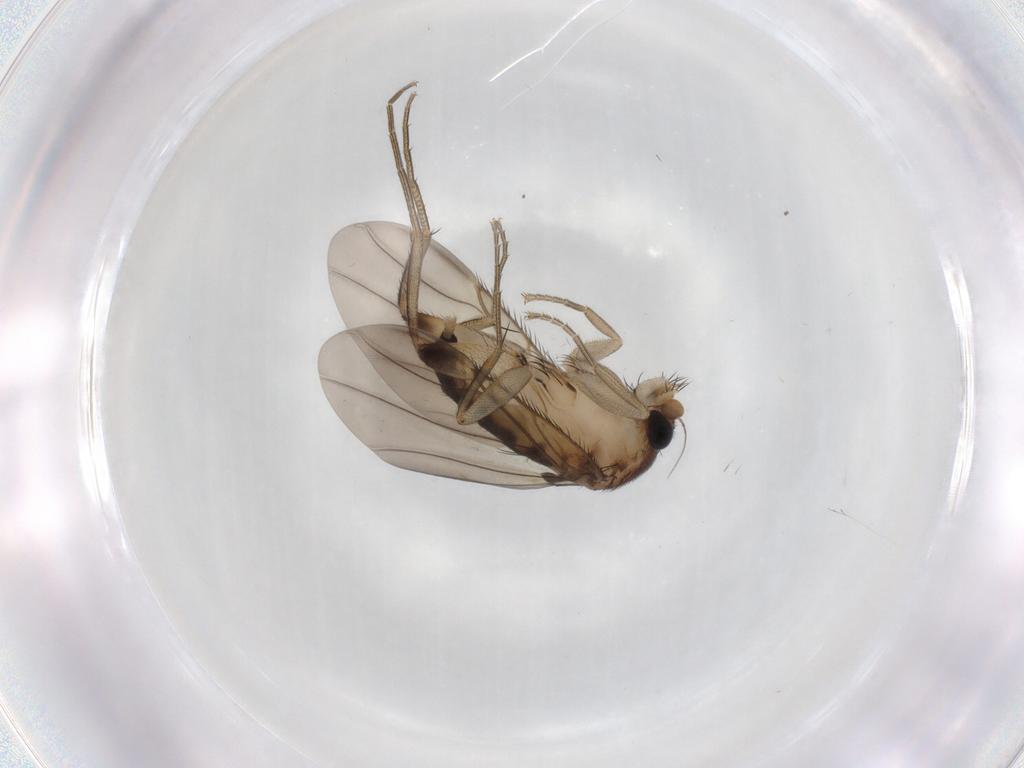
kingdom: Animalia
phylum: Arthropoda
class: Insecta
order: Diptera
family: Phoridae
